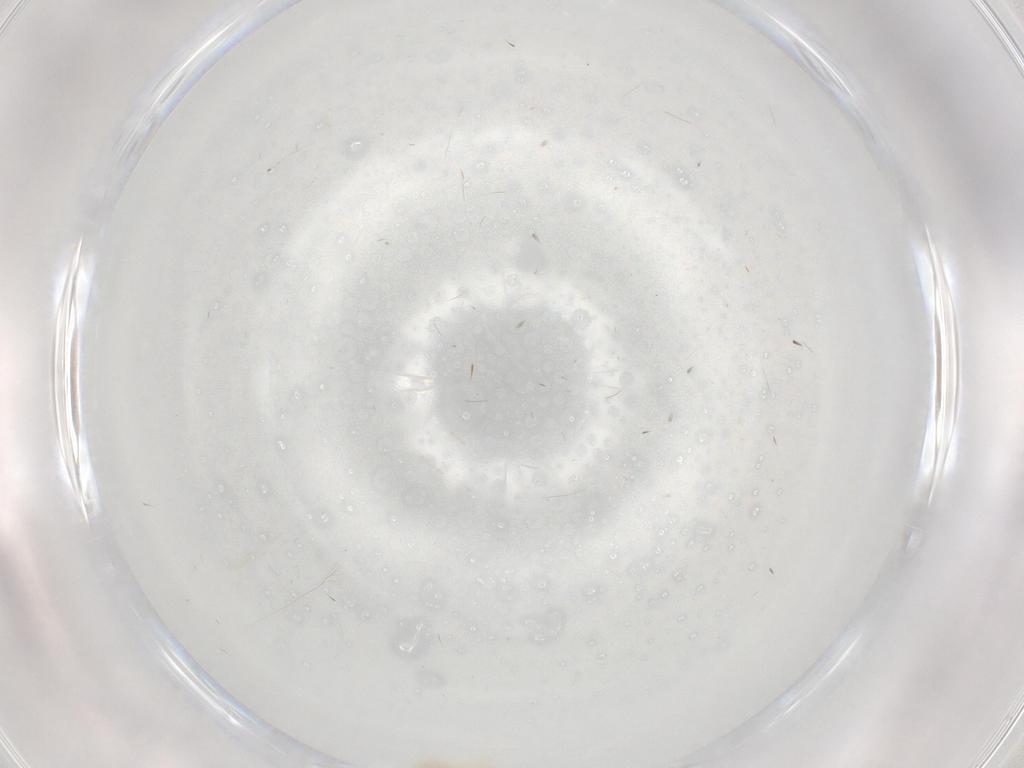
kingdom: Animalia
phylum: Arthropoda
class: Insecta
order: Diptera
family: Cecidomyiidae
